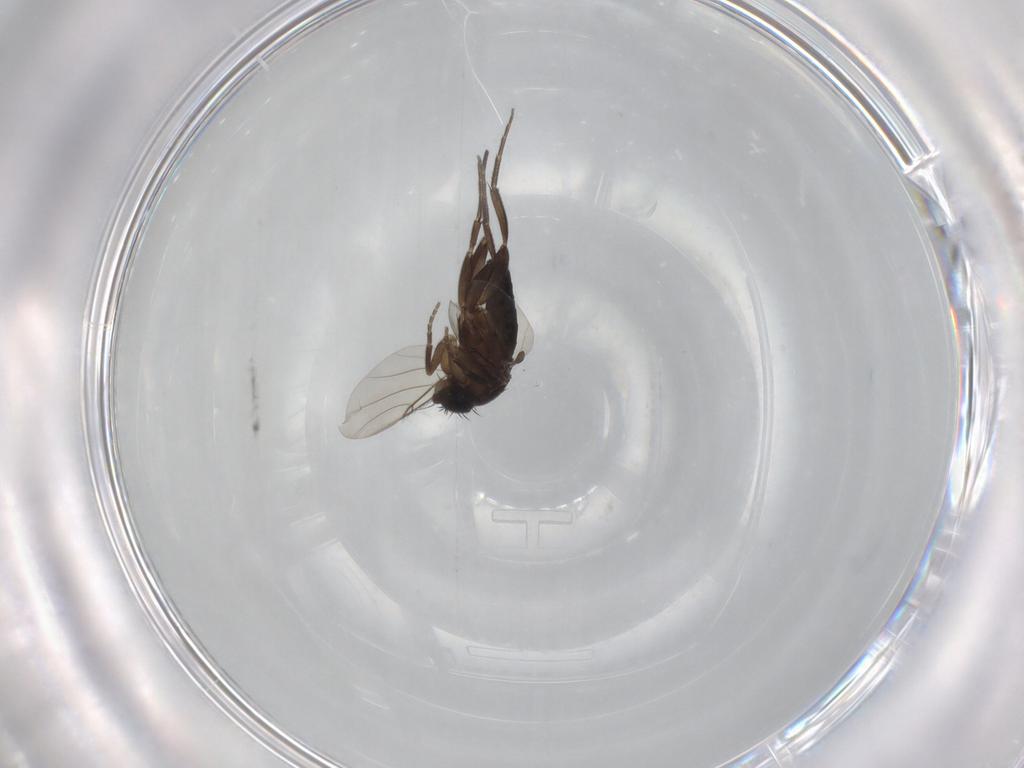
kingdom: Animalia
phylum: Arthropoda
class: Insecta
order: Diptera
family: Phoridae
